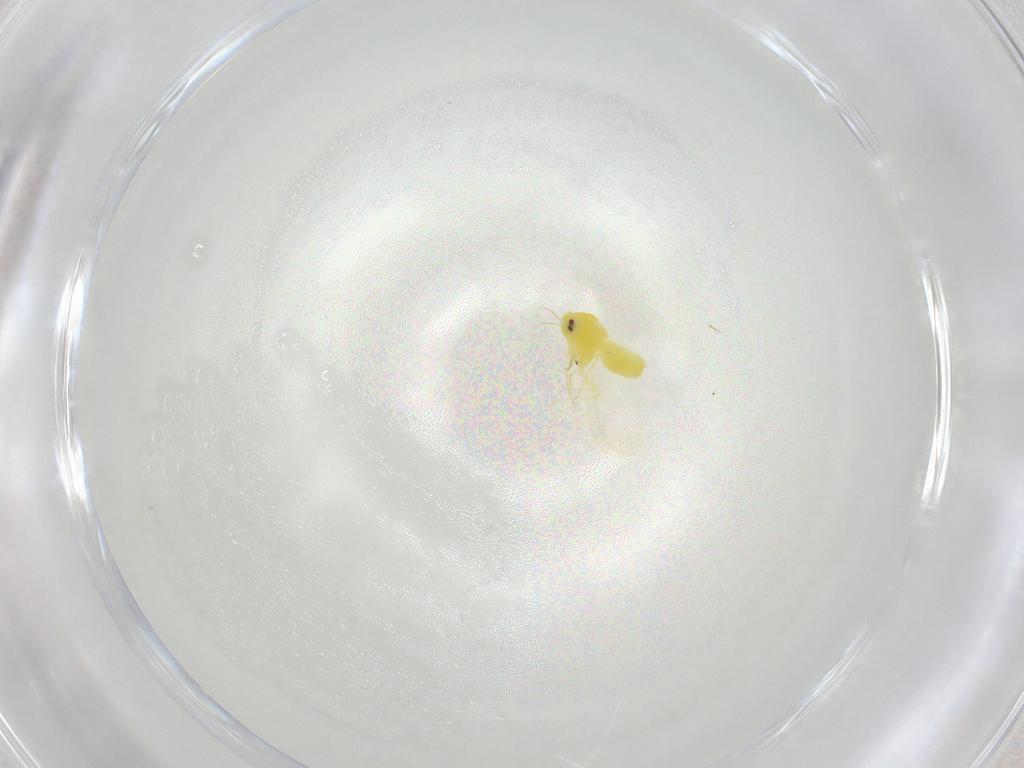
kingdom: Animalia
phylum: Arthropoda
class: Insecta
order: Hemiptera
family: Aleyrodidae
